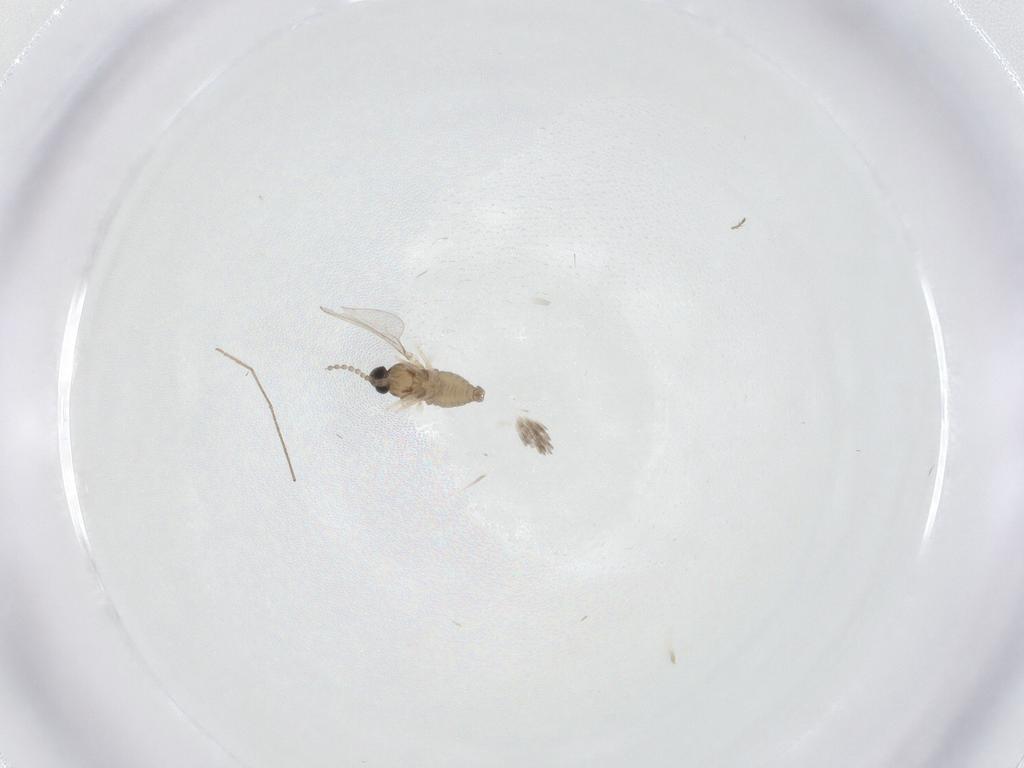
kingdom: Animalia
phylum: Arthropoda
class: Insecta
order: Diptera
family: Cecidomyiidae
